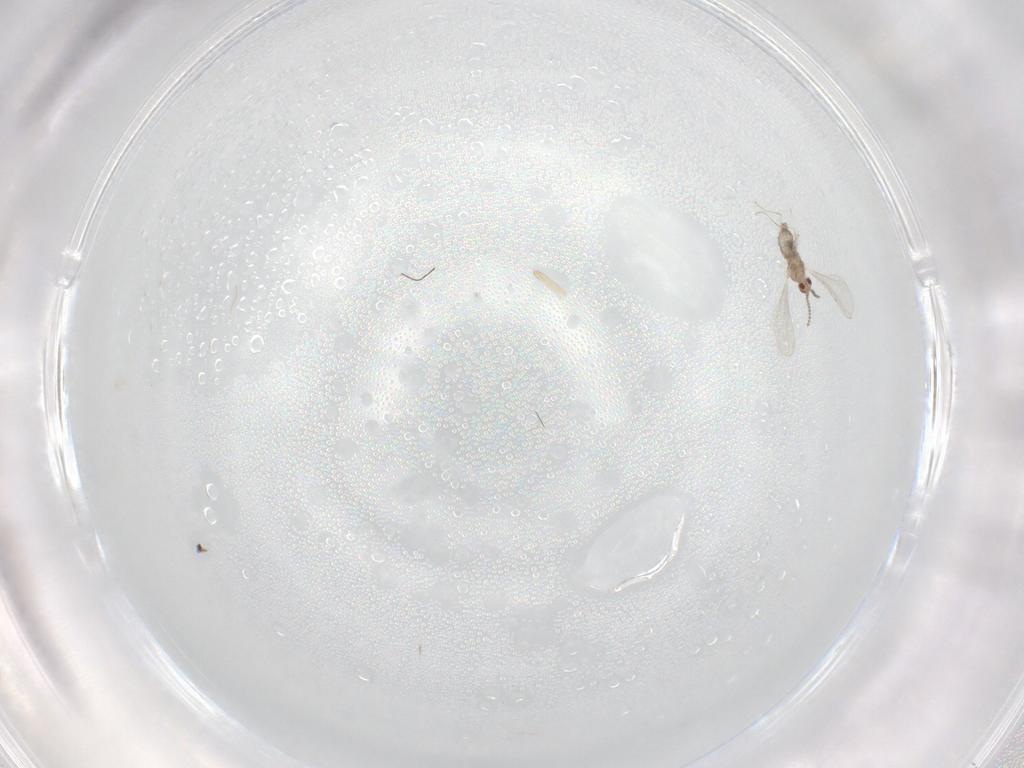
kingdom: Animalia
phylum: Arthropoda
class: Insecta
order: Diptera
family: Cecidomyiidae
